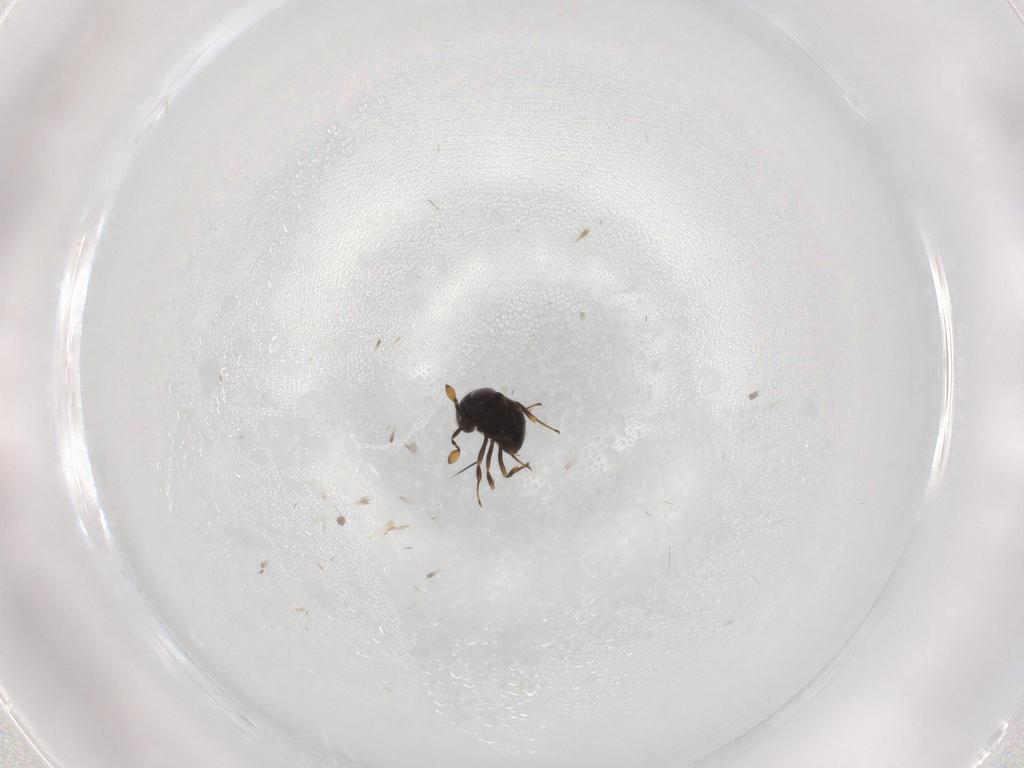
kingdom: Animalia
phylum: Arthropoda
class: Insecta
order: Hymenoptera
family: Scelionidae
